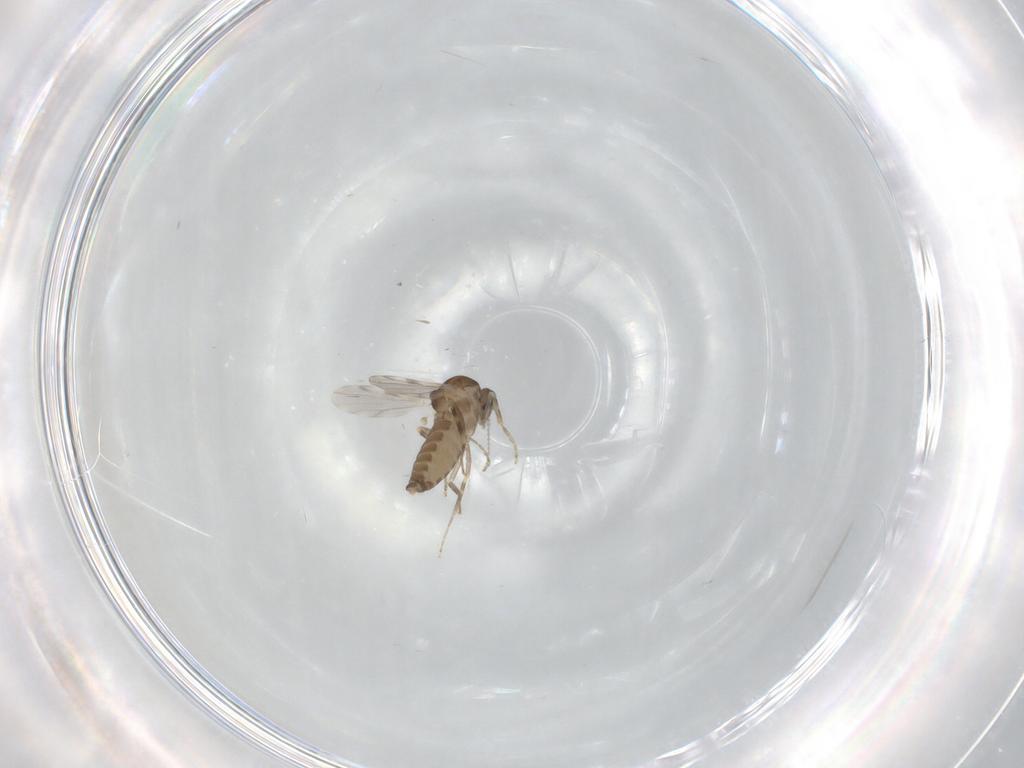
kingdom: Animalia
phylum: Arthropoda
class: Insecta
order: Diptera
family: Ceratopogonidae
